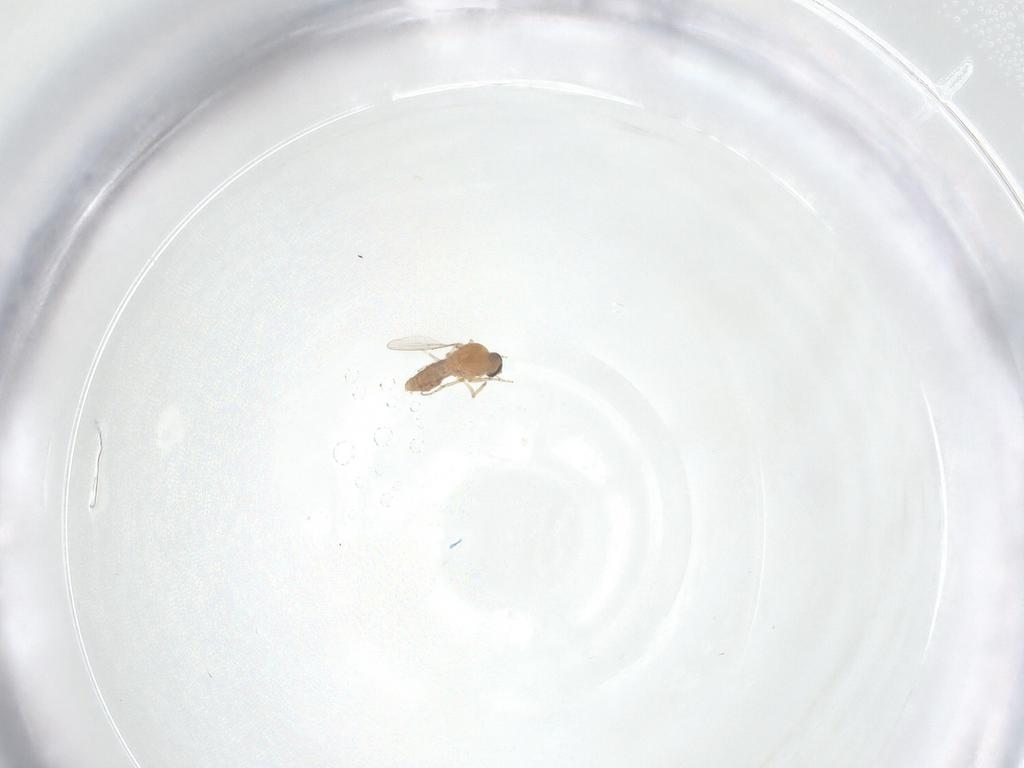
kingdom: Animalia
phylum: Arthropoda
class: Insecta
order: Diptera
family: Ceratopogonidae
